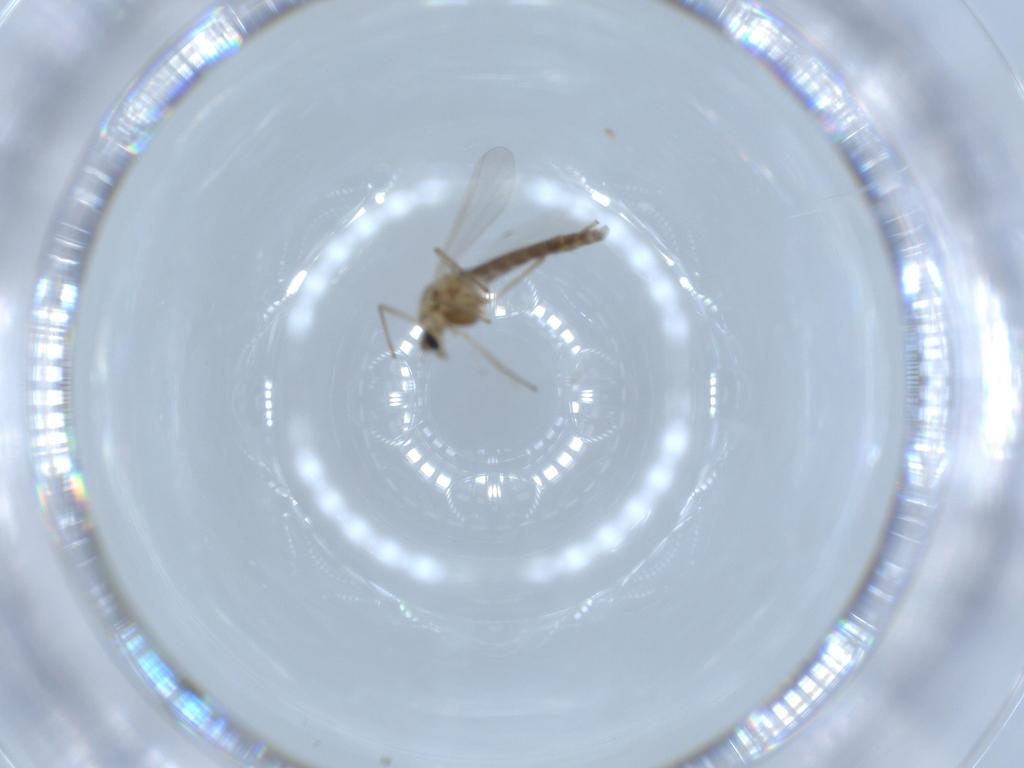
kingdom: Animalia
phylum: Arthropoda
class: Insecta
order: Diptera
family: Chironomidae
